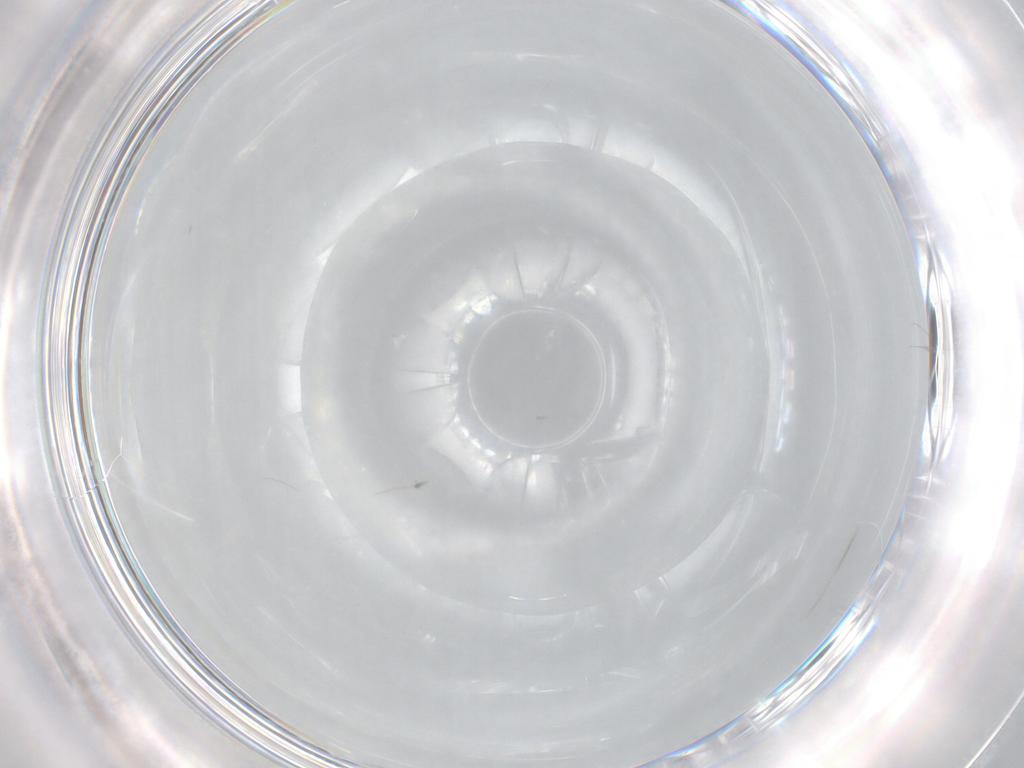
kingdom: Animalia
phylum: Arthropoda
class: Insecta
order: Diptera
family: Chironomidae
